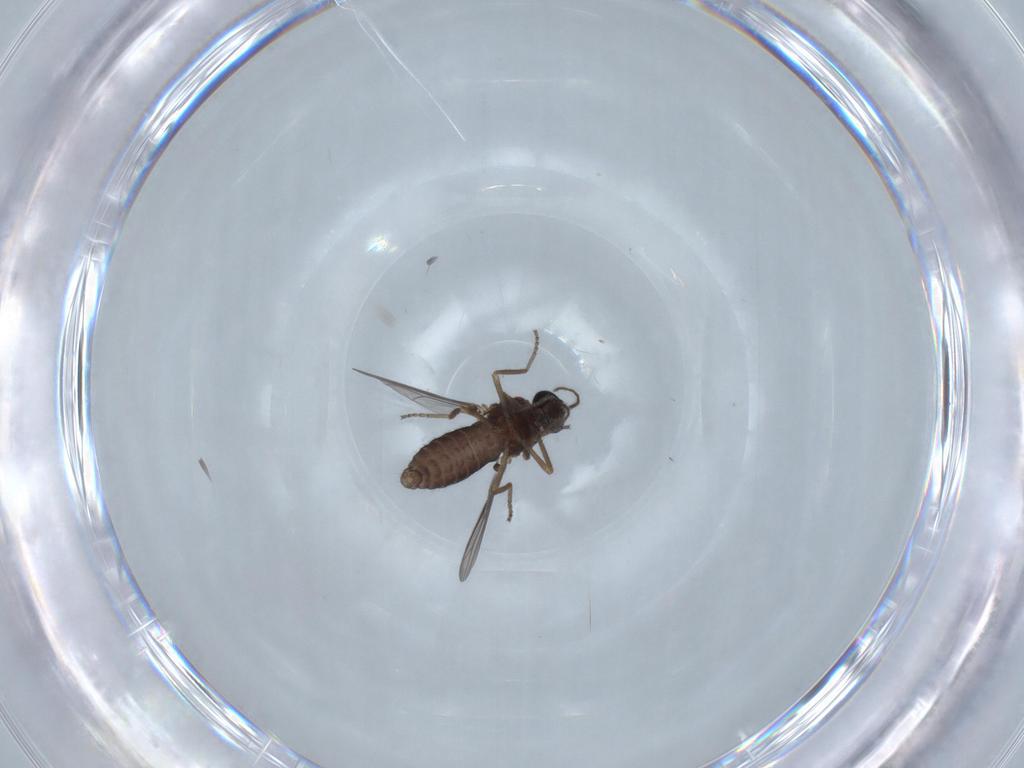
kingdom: Animalia
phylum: Arthropoda
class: Insecta
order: Diptera
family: Ceratopogonidae
